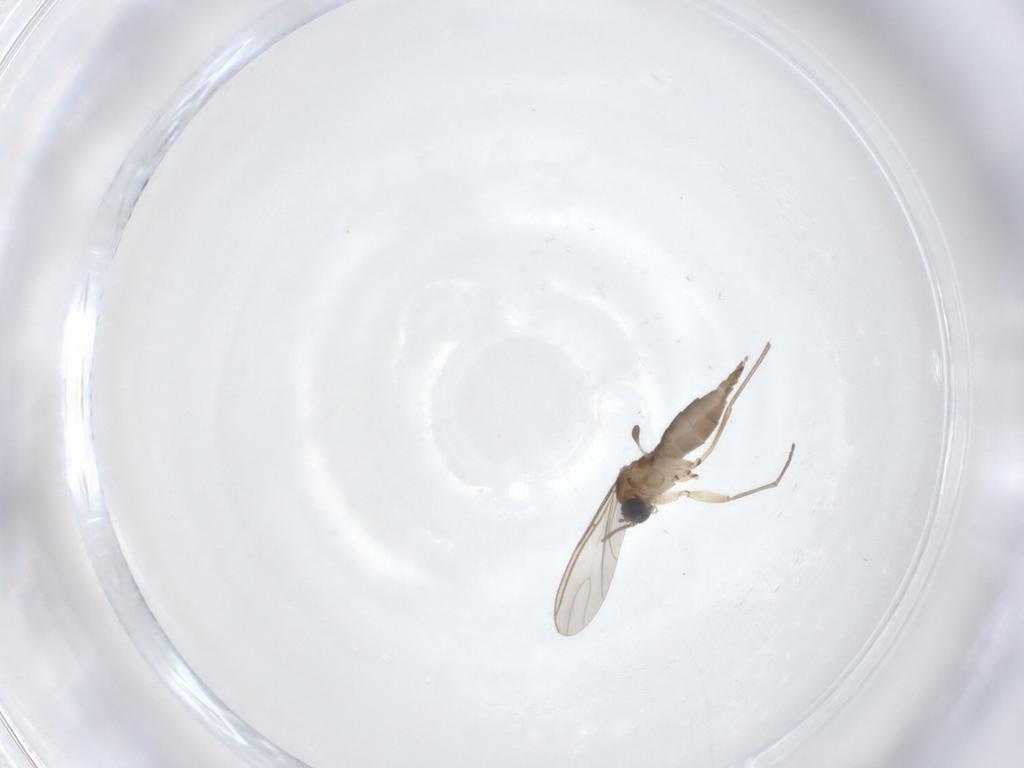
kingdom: Animalia
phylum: Arthropoda
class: Insecta
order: Diptera
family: Sciaridae
